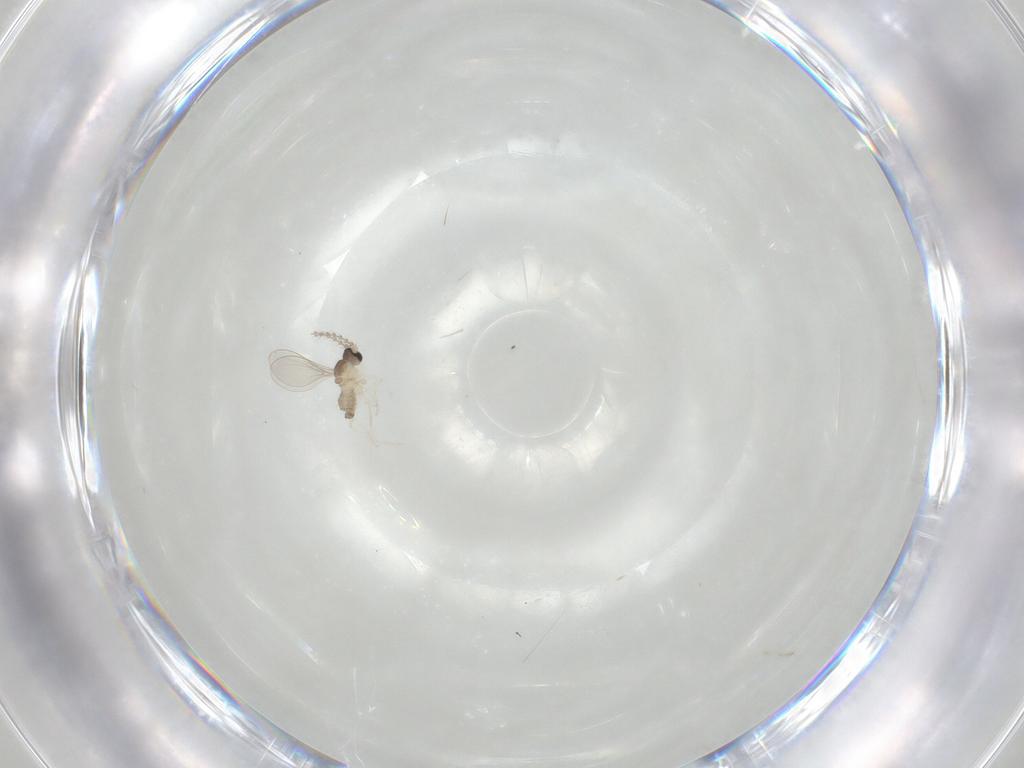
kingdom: Animalia
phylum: Arthropoda
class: Insecta
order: Diptera
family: Cecidomyiidae
